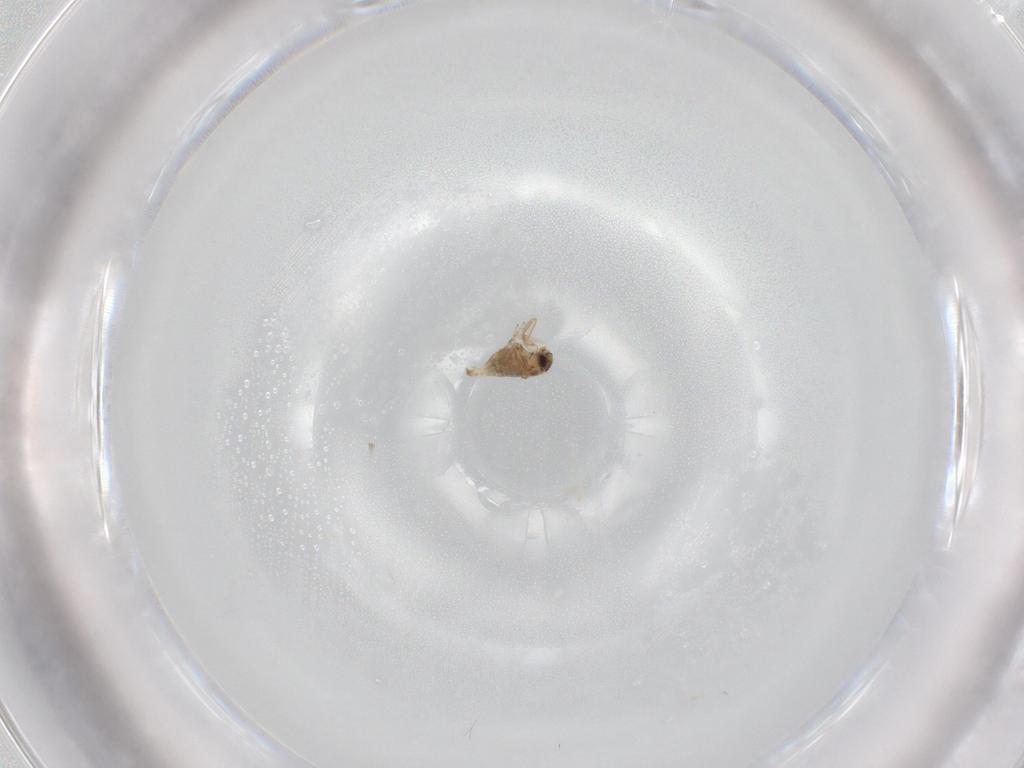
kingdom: Animalia
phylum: Arthropoda
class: Insecta
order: Diptera
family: Phoridae
